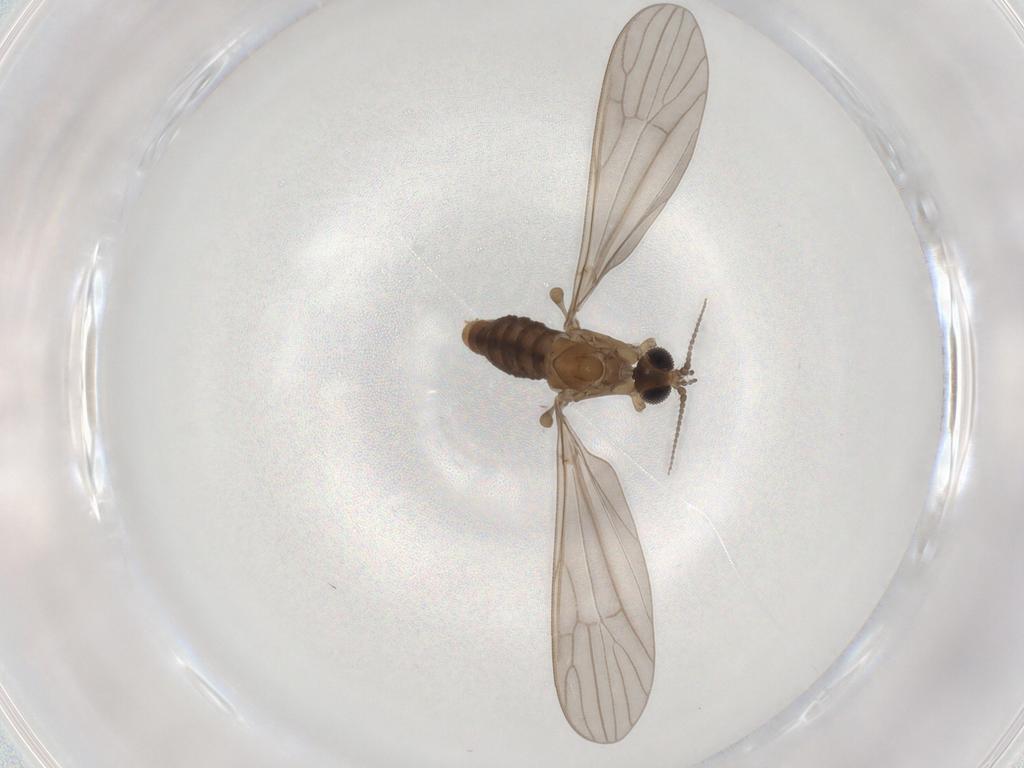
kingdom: Animalia
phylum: Arthropoda
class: Insecta
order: Diptera
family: Limoniidae
